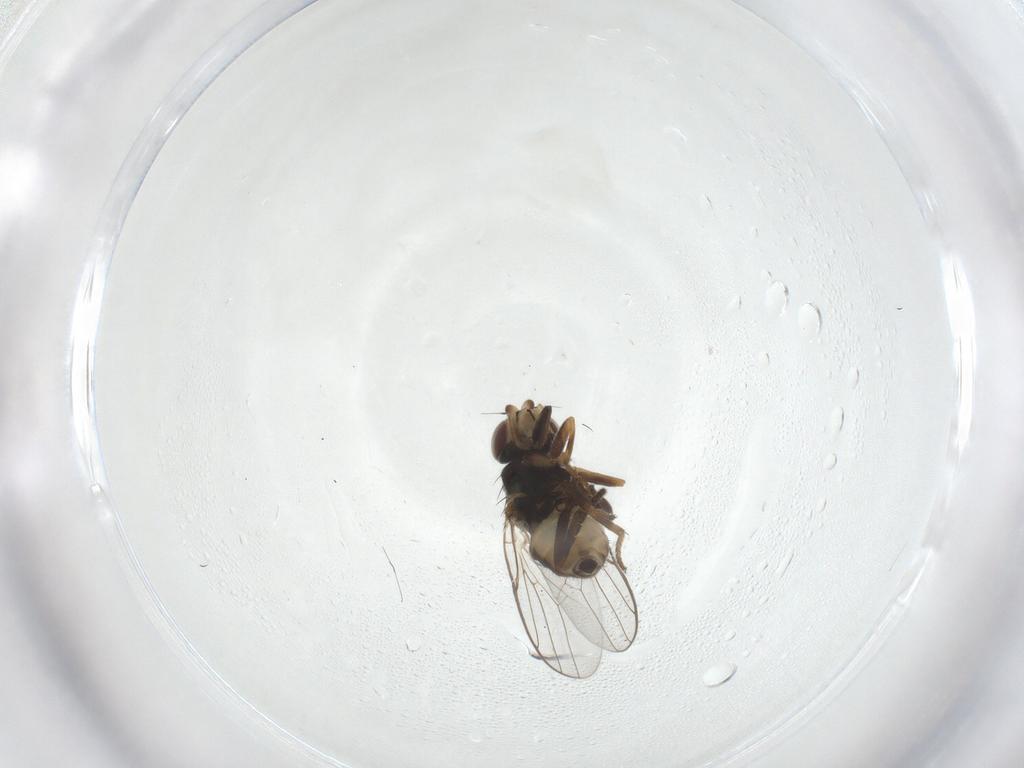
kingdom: Animalia
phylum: Arthropoda
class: Insecta
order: Diptera
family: Chloropidae
